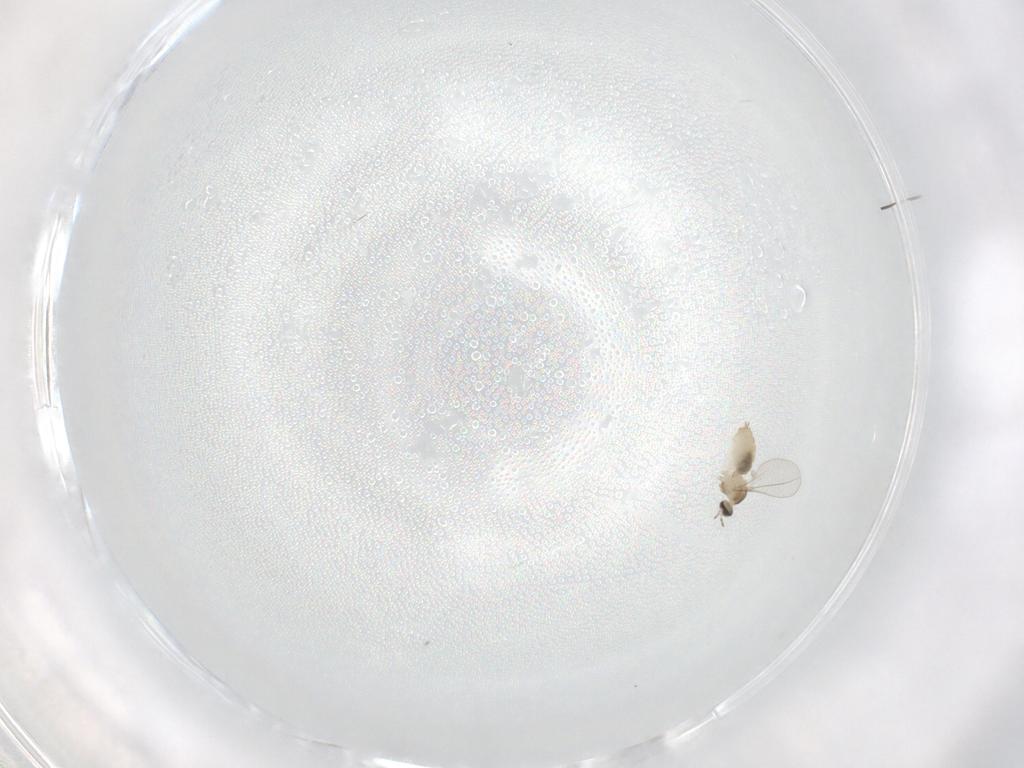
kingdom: Animalia
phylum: Arthropoda
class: Insecta
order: Diptera
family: Cecidomyiidae
